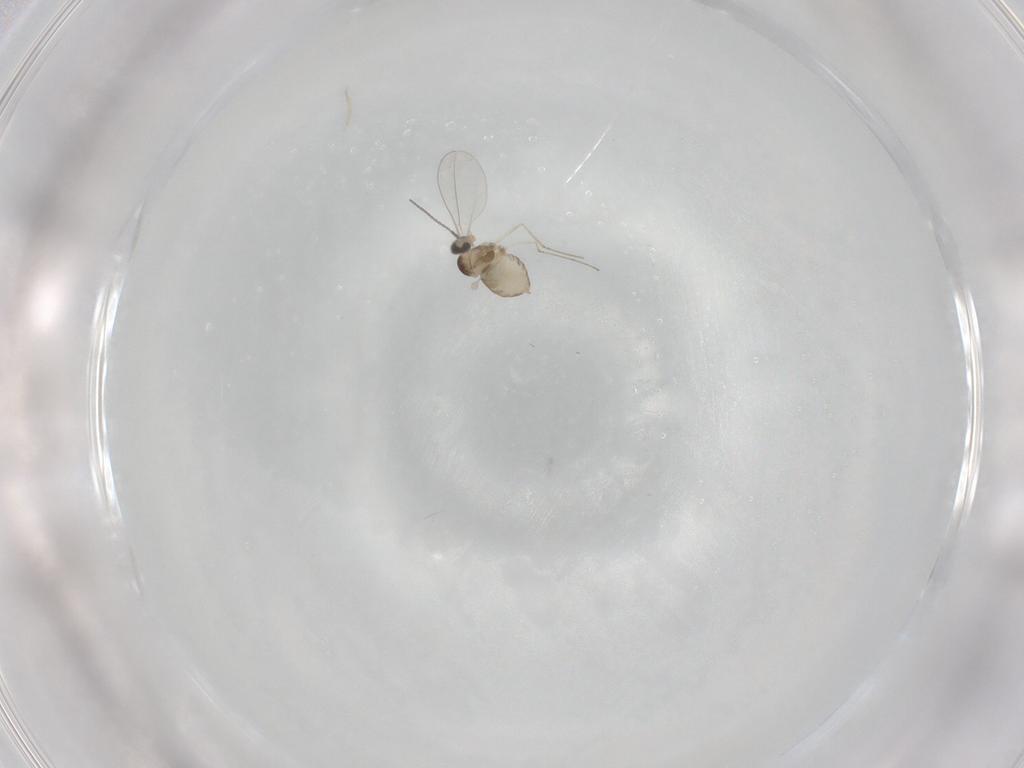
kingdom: Animalia
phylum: Arthropoda
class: Insecta
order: Diptera
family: Cecidomyiidae
